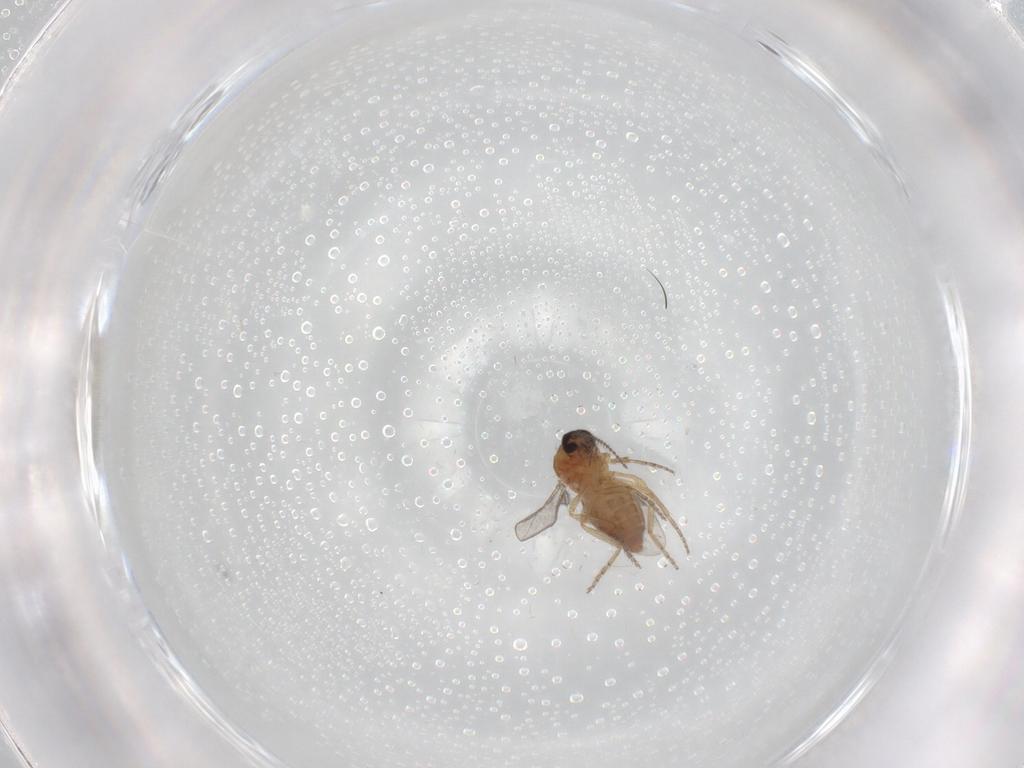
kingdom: Animalia
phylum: Arthropoda
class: Insecta
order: Diptera
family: Ceratopogonidae
